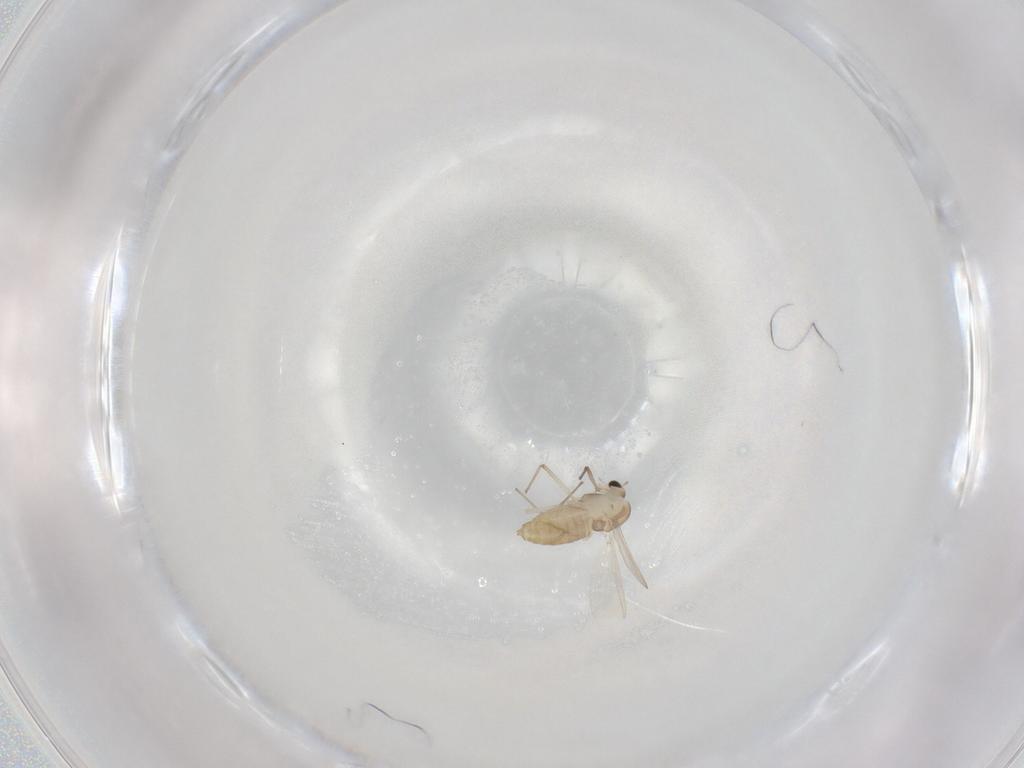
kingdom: Animalia
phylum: Arthropoda
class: Insecta
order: Diptera
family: Chironomidae
